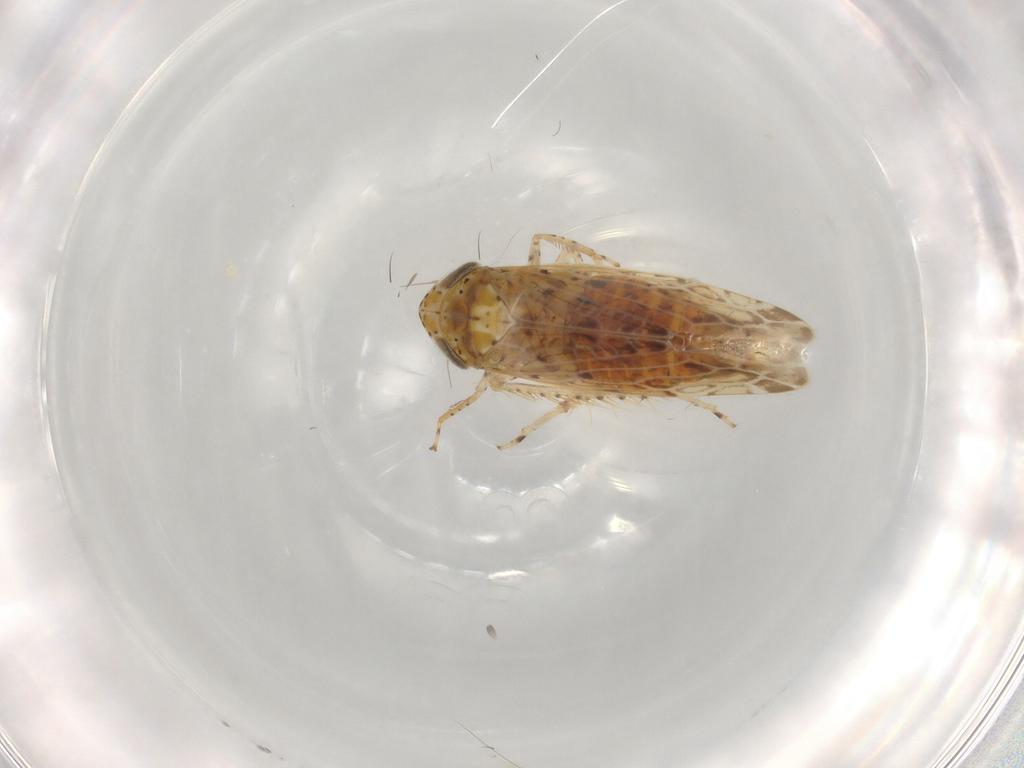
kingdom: Animalia
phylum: Arthropoda
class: Insecta
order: Hemiptera
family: Cicadellidae
